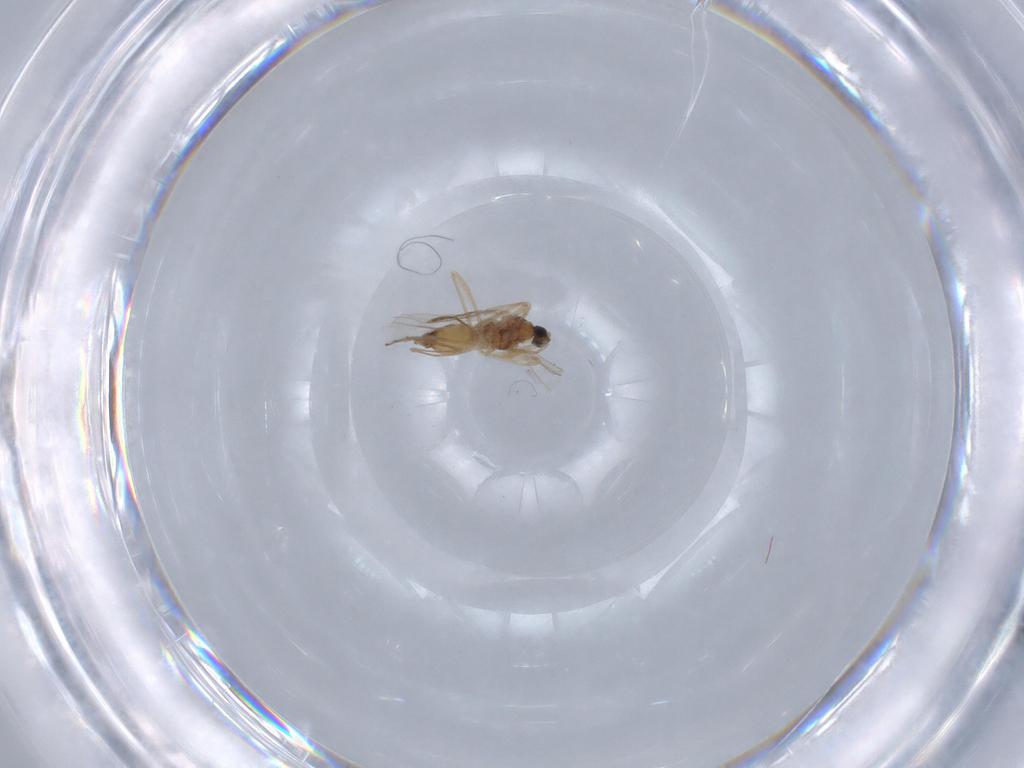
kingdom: Animalia
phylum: Arthropoda
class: Insecta
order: Diptera
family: Cecidomyiidae
